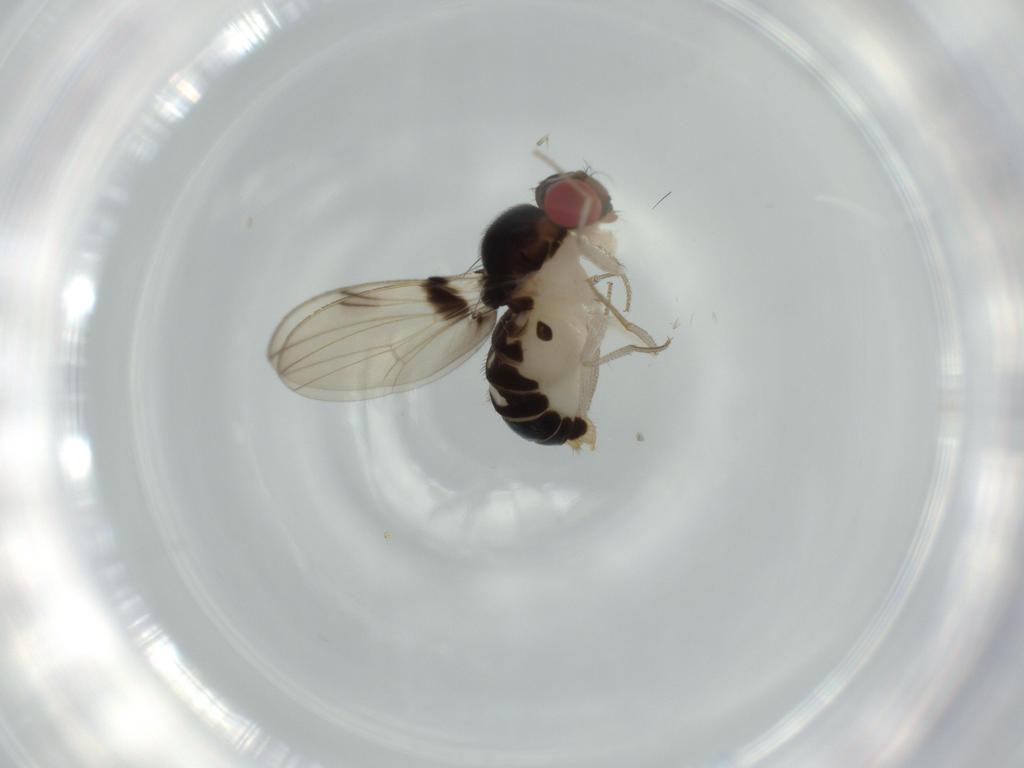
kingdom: Animalia
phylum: Arthropoda
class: Insecta
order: Diptera
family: Drosophilidae
